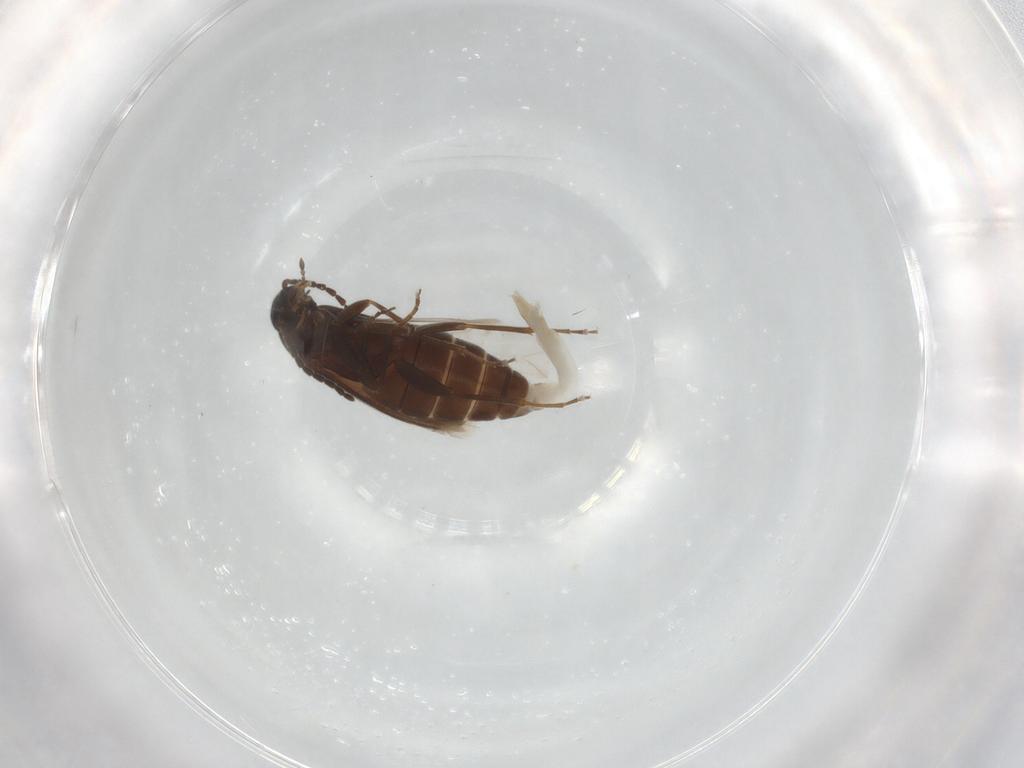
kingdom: Animalia
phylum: Arthropoda
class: Insecta
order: Coleoptera
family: Scraptiidae
